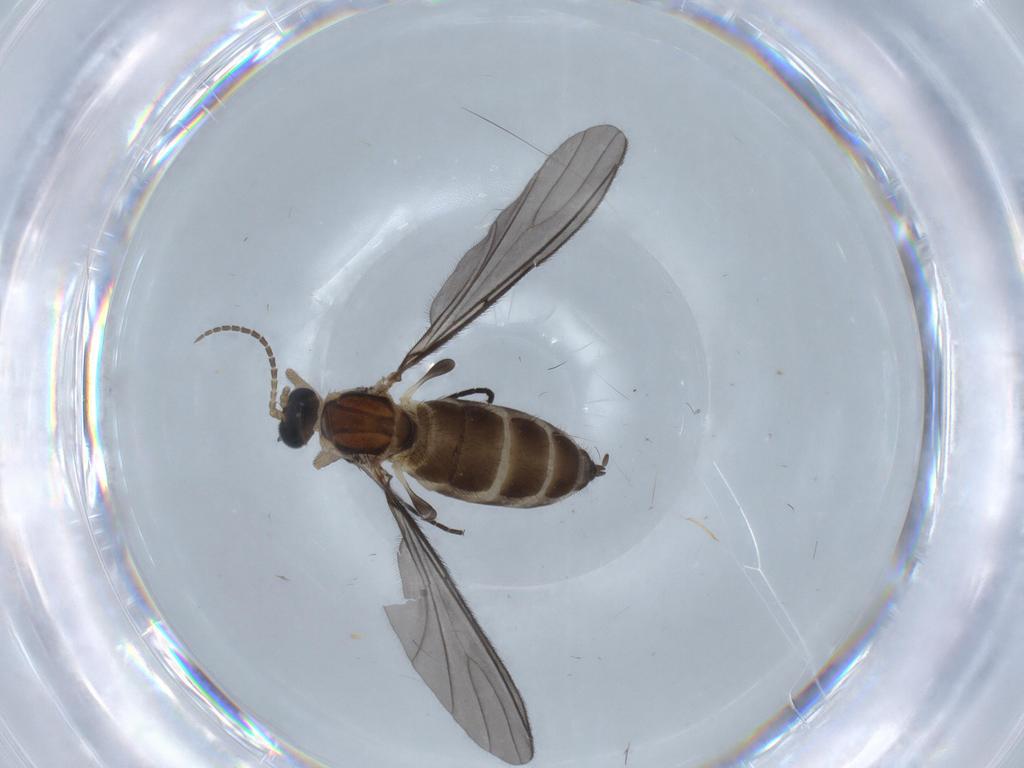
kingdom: Animalia
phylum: Arthropoda
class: Insecta
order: Diptera
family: Sciaridae
